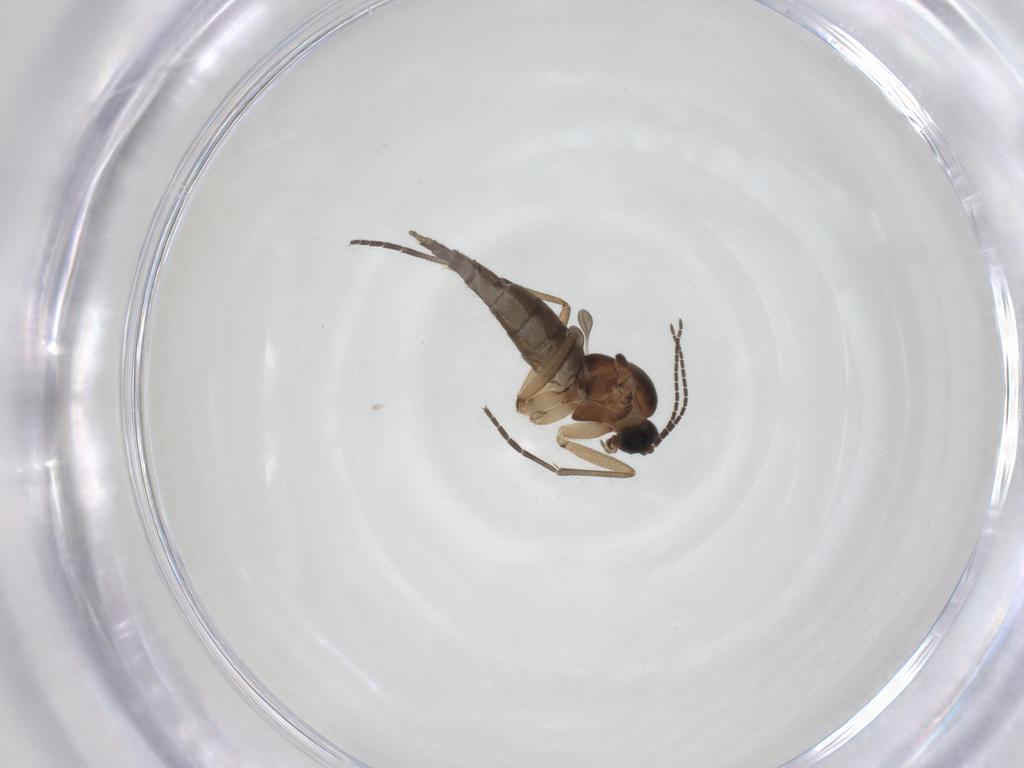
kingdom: Animalia
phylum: Arthropoda
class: Insecta
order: Diptera
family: Sciaridae
